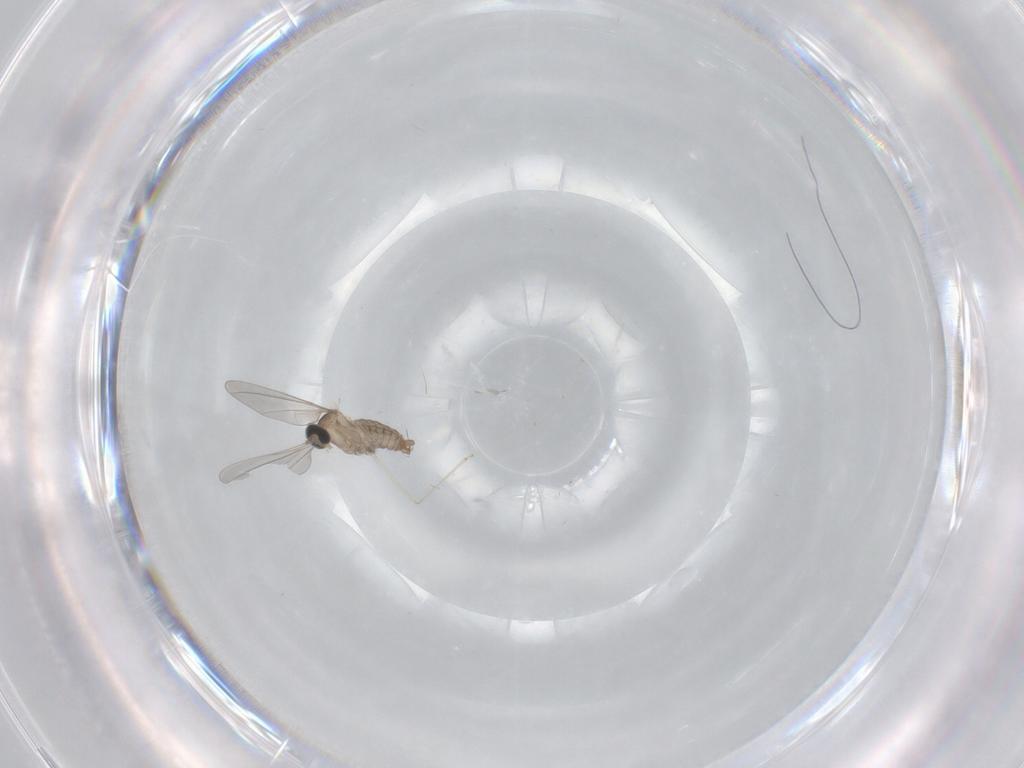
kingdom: Animalia
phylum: Arthropoda
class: Insecta
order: Diptera
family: Cecidomyiidae
